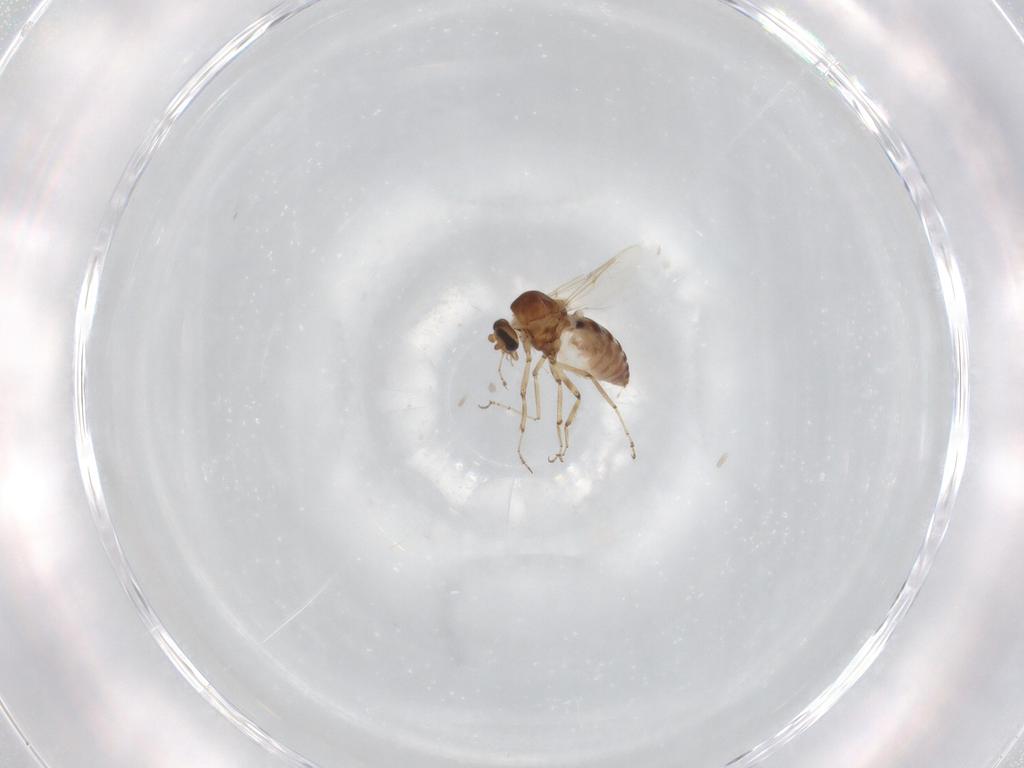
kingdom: Animalia
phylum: Arthropoda
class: Insecta
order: Diptera
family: Ceratopogonidae
